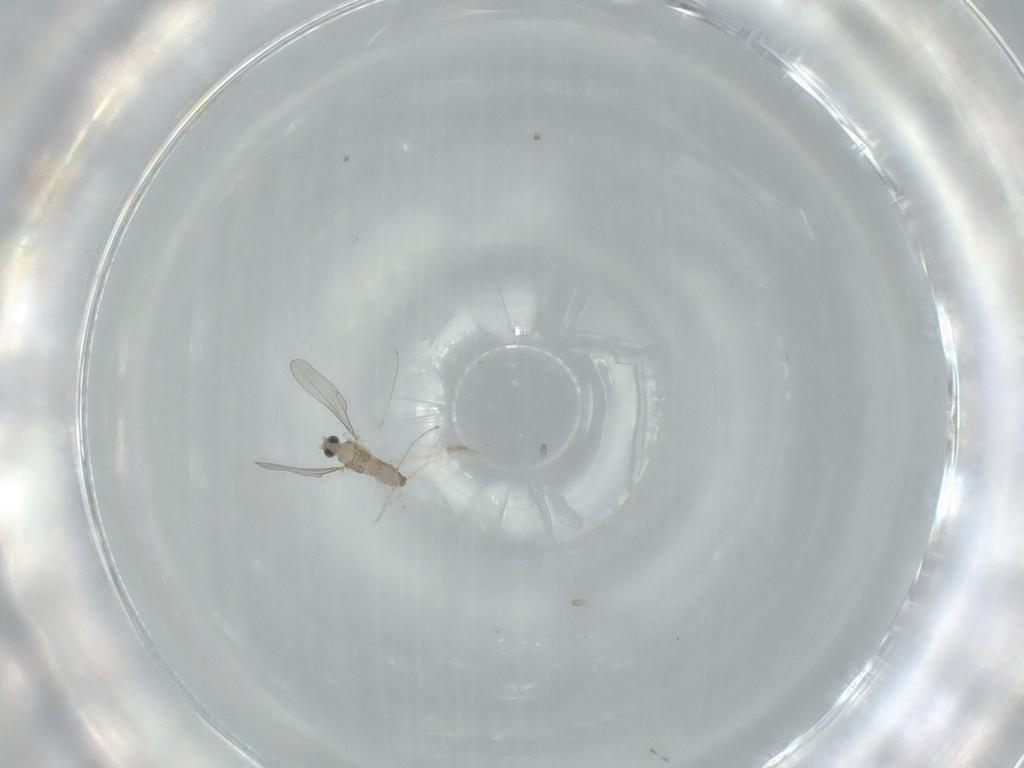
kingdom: Animalia
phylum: Arthropoda
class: Insecta
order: Diptera
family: Cecidomyiidae
